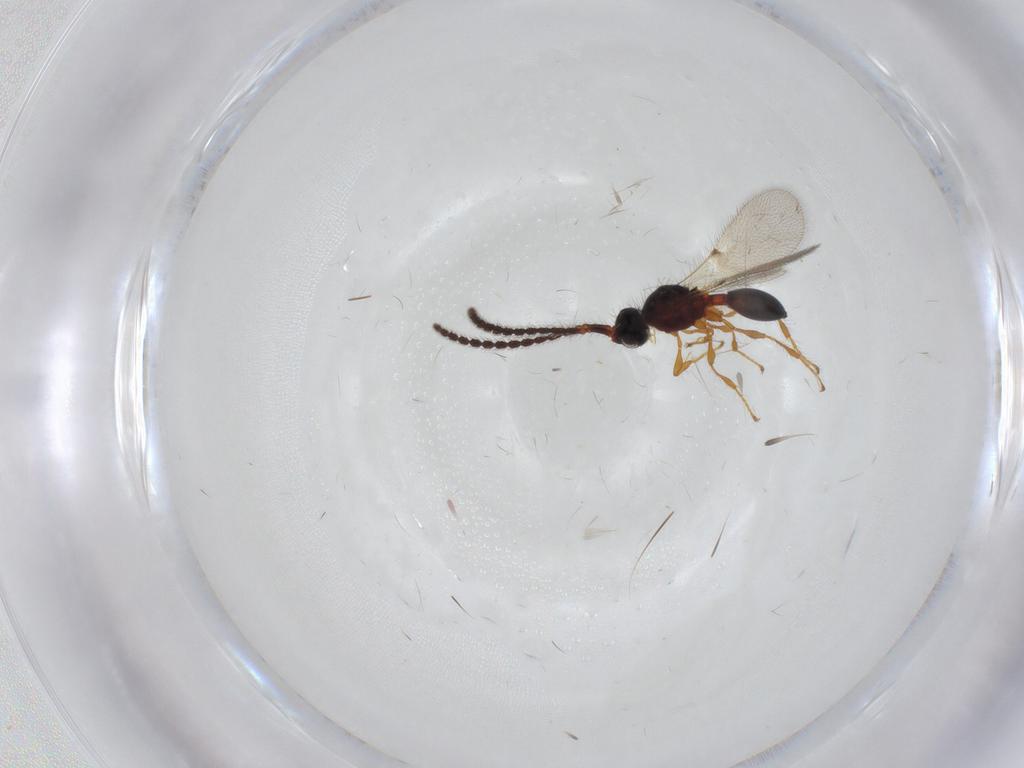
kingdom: Animalia
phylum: Arthropoda
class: Insecta
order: Hymenoptera
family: Diapriidae
